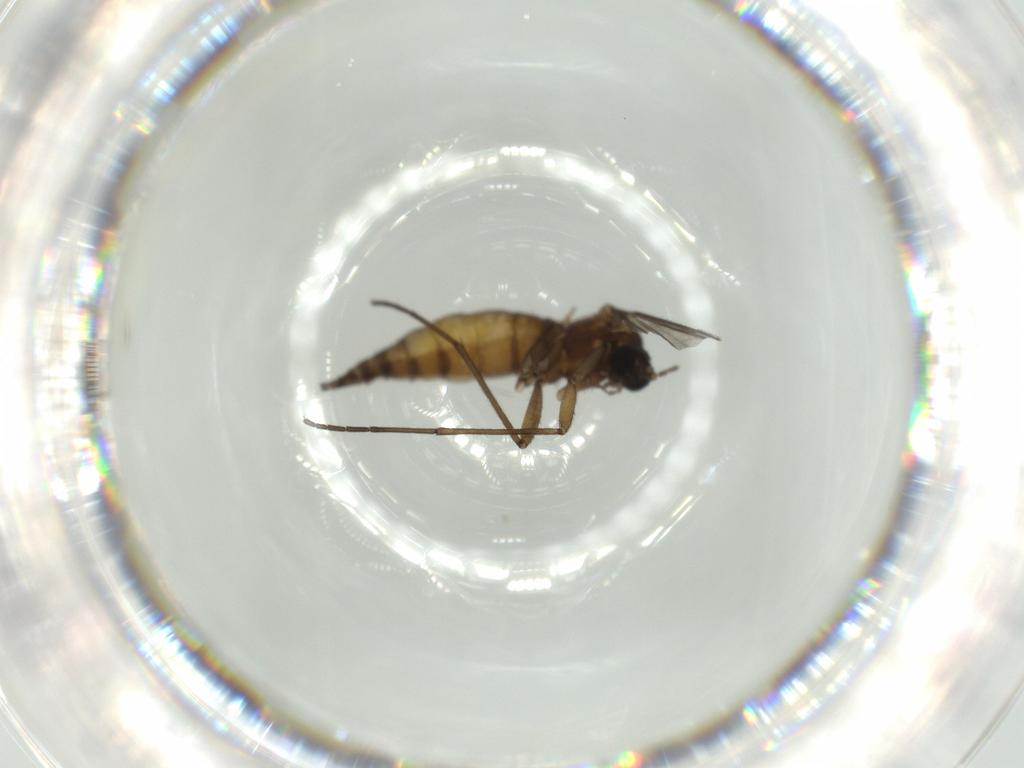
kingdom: Animalia
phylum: Arthropoda
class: Insecta
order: Diptera
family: Sciaridae
